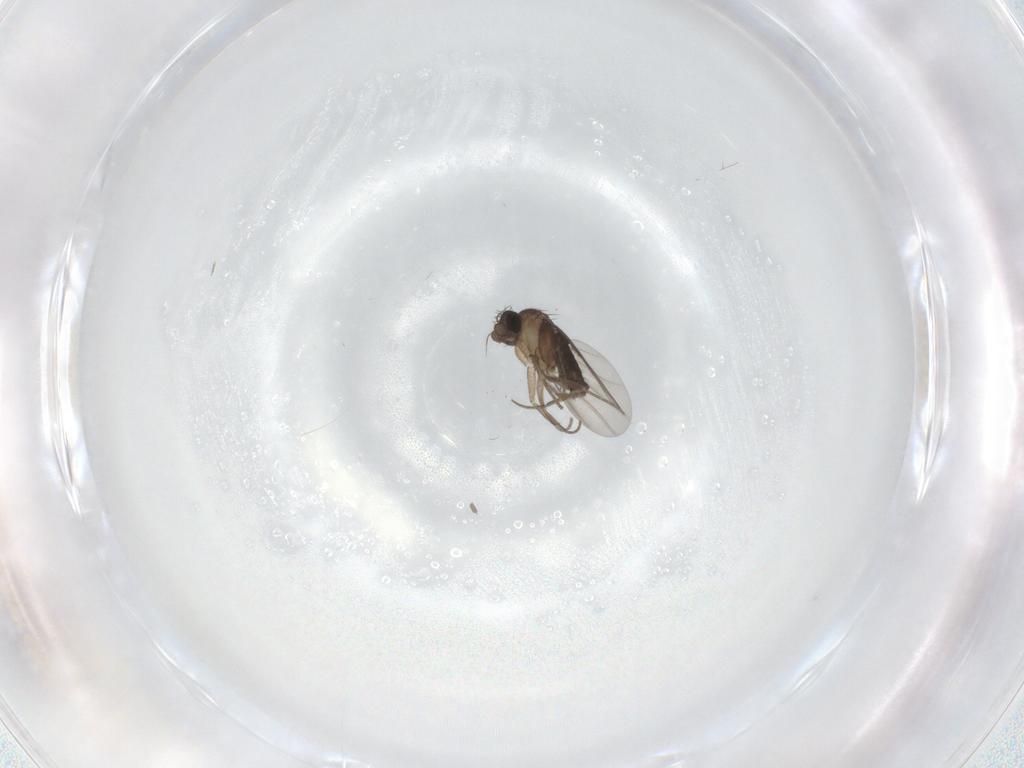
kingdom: Animalia
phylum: Arthropoda
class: Insecta
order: Diptera
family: Chironomidae
